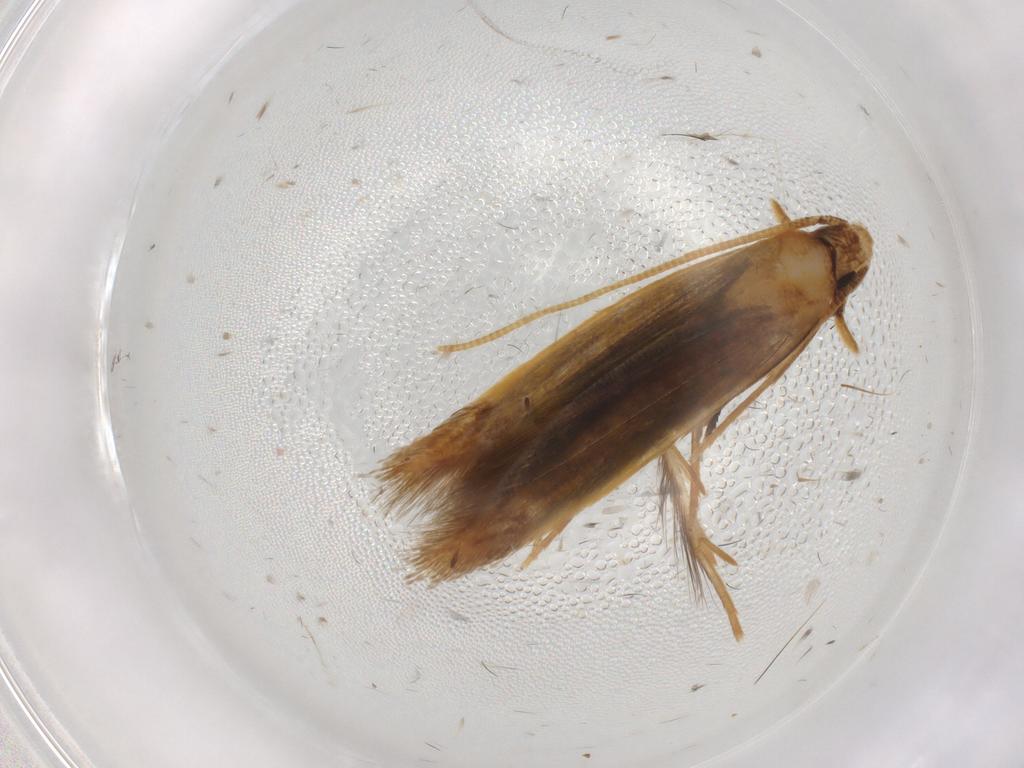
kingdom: Animalia
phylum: Arthropoda
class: Insecta
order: Lepidoptera
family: Tineidae
